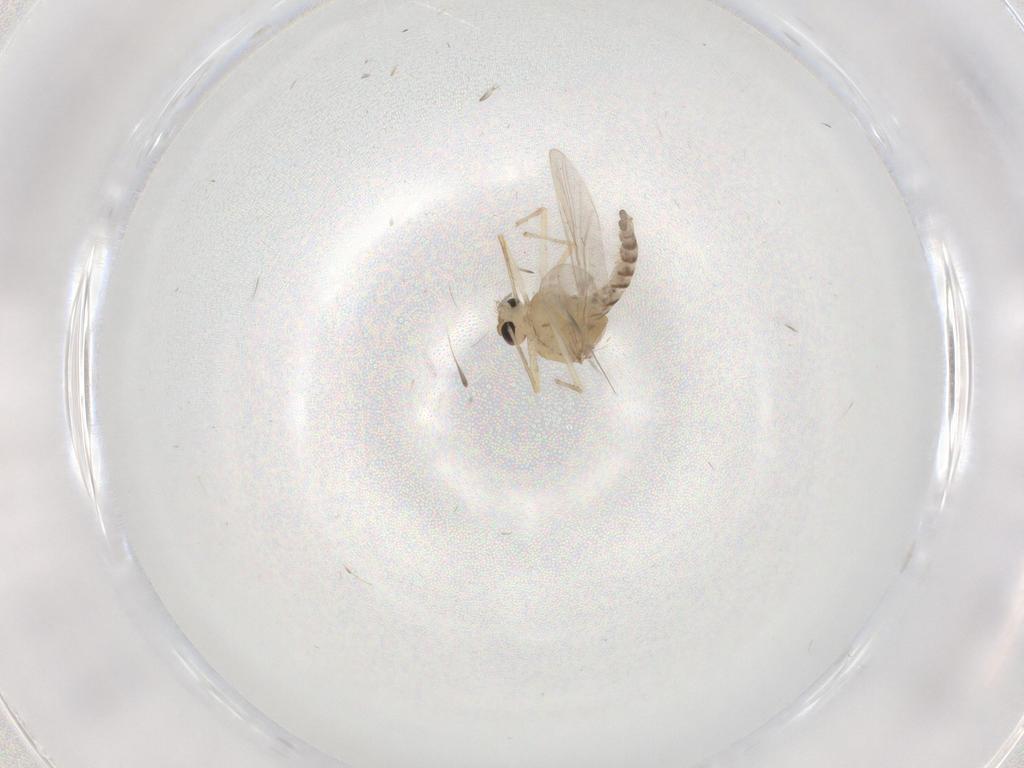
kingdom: Animalia
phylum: Arthropoda
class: Insecta
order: Diptera
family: Chironomidae
